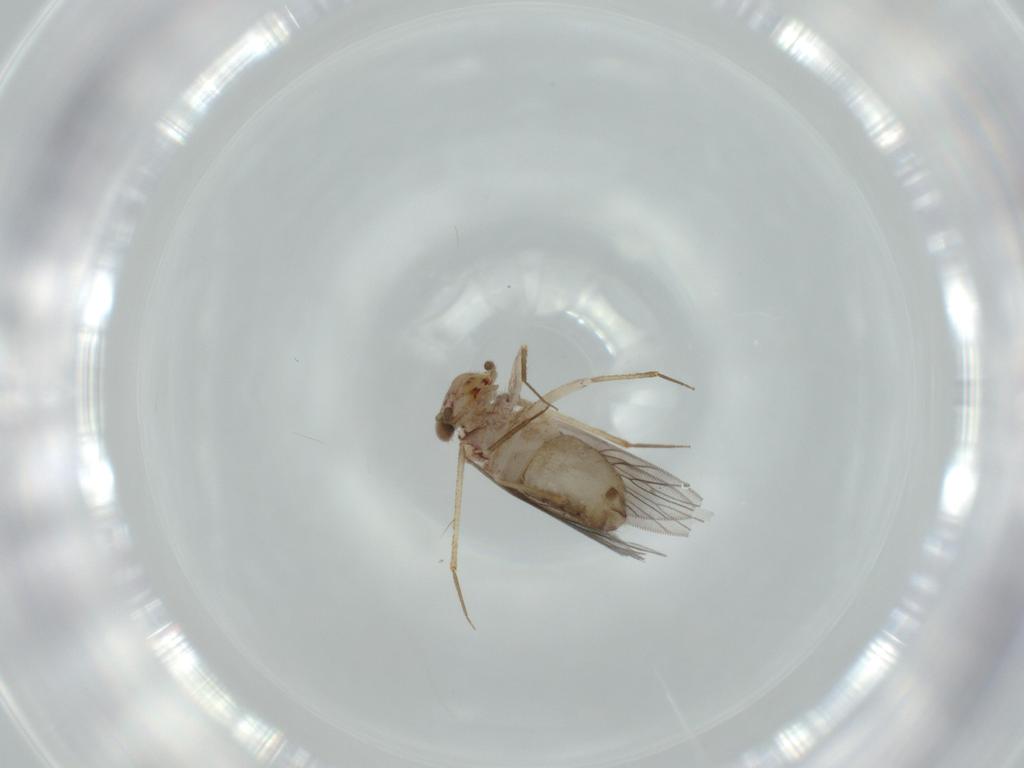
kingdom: Animalia
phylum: Arthropoda
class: Insecta
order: Psocodea
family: Lepidopsocidae
